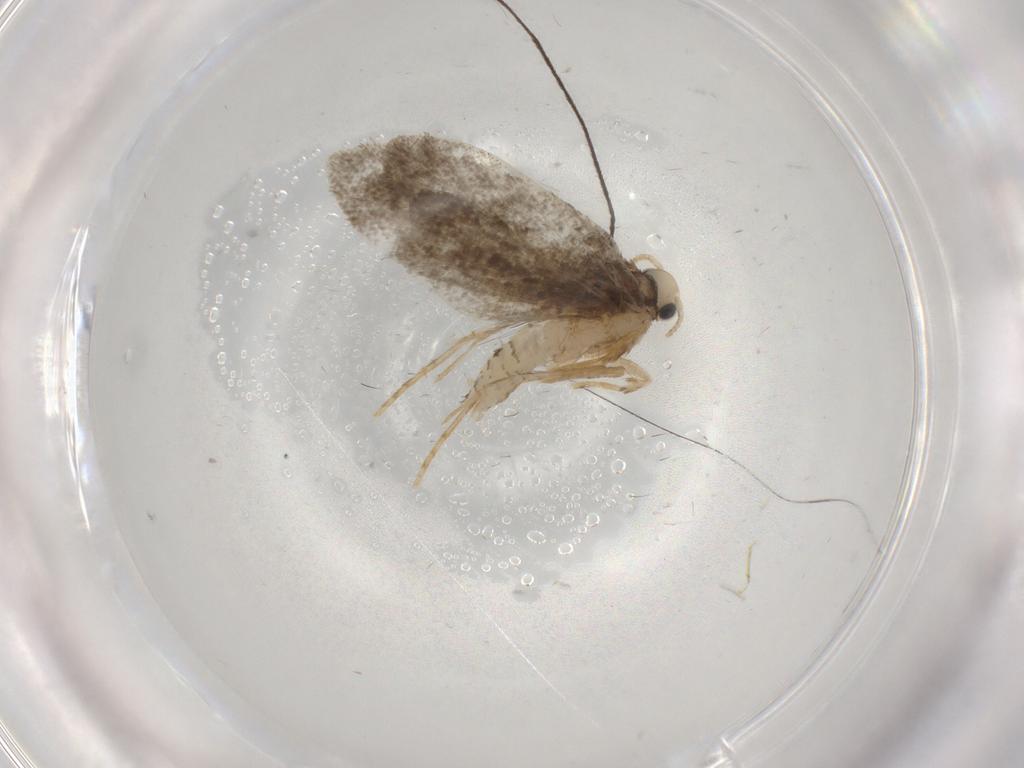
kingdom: Animalia
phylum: Arthropoda
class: Insecta
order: Lepidoptera
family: Psychidae
